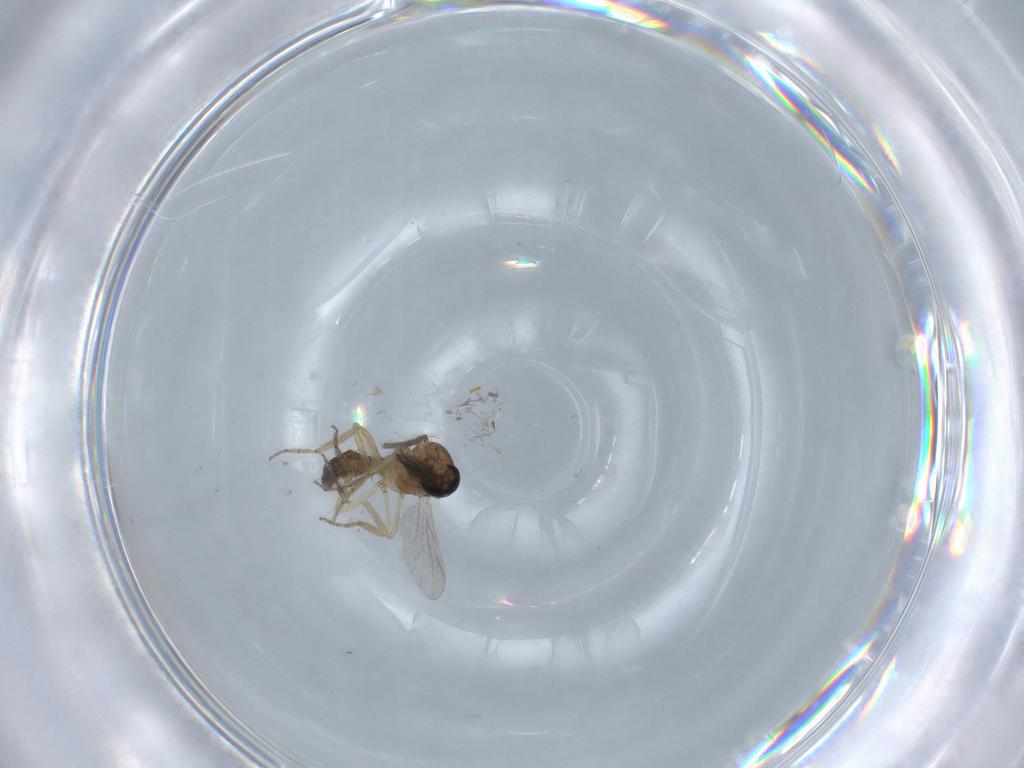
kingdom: Animalia
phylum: Arthropoda
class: Insecta
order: Diptera
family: Ceratopogonidae
